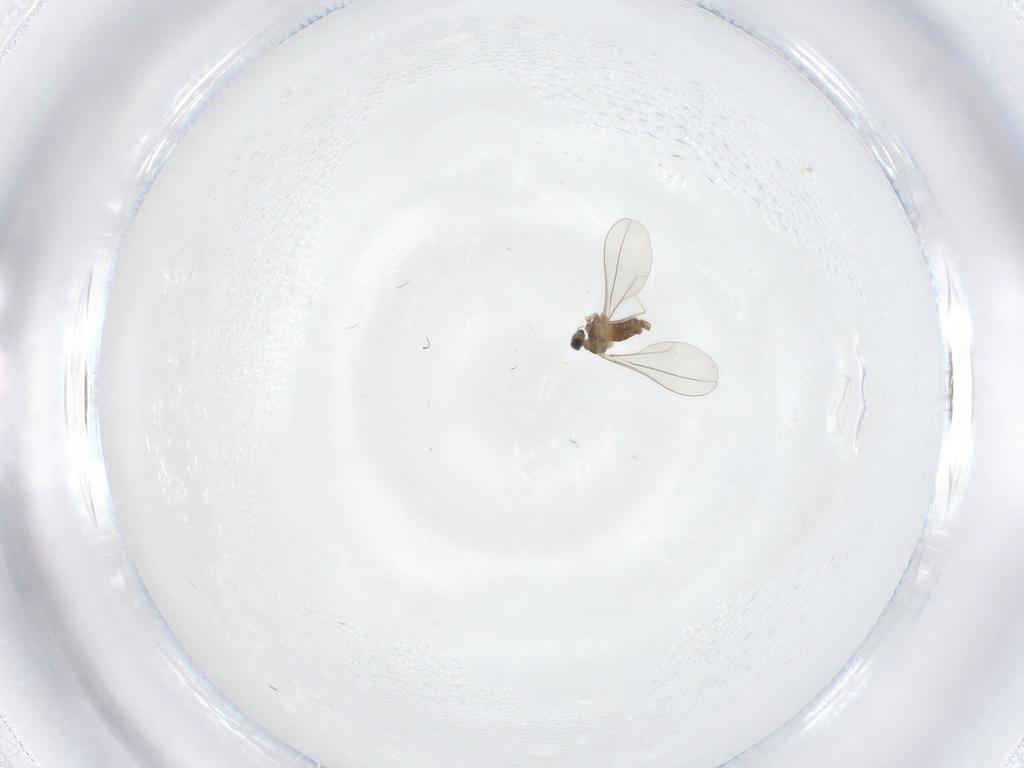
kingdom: Animalia
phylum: Arthropoda
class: Insecta
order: Diptera
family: Cecidomyiidae
